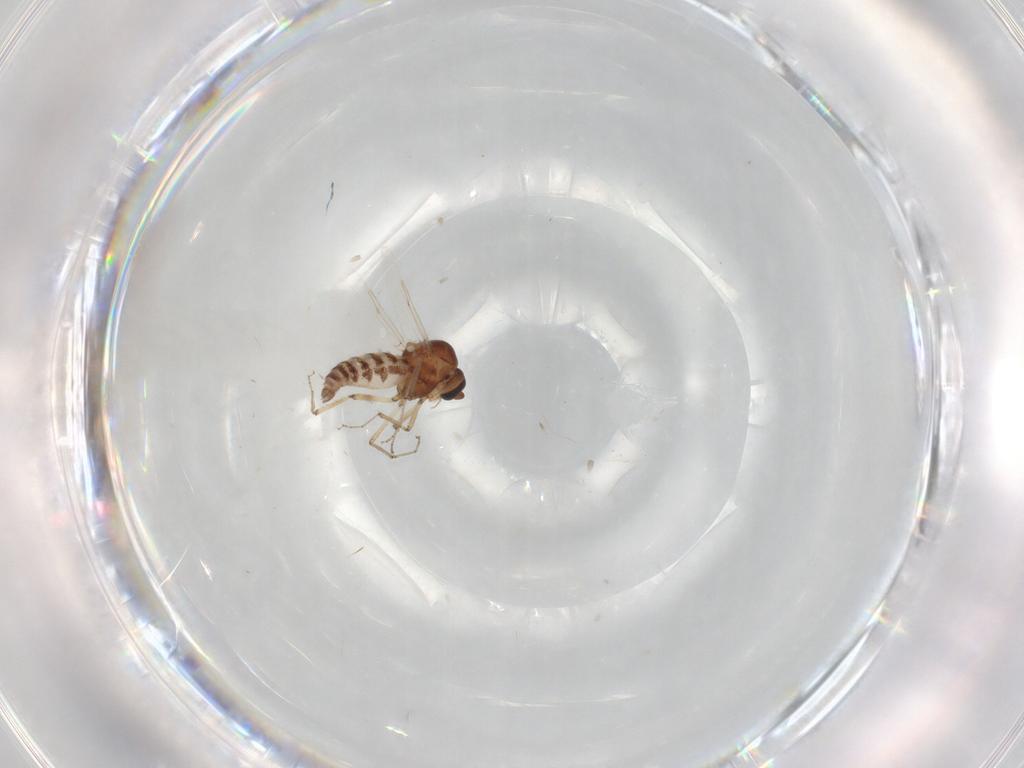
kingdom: Animalia
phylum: Arthropoda
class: Insecta
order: Diptera
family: Ceratopogonidae
